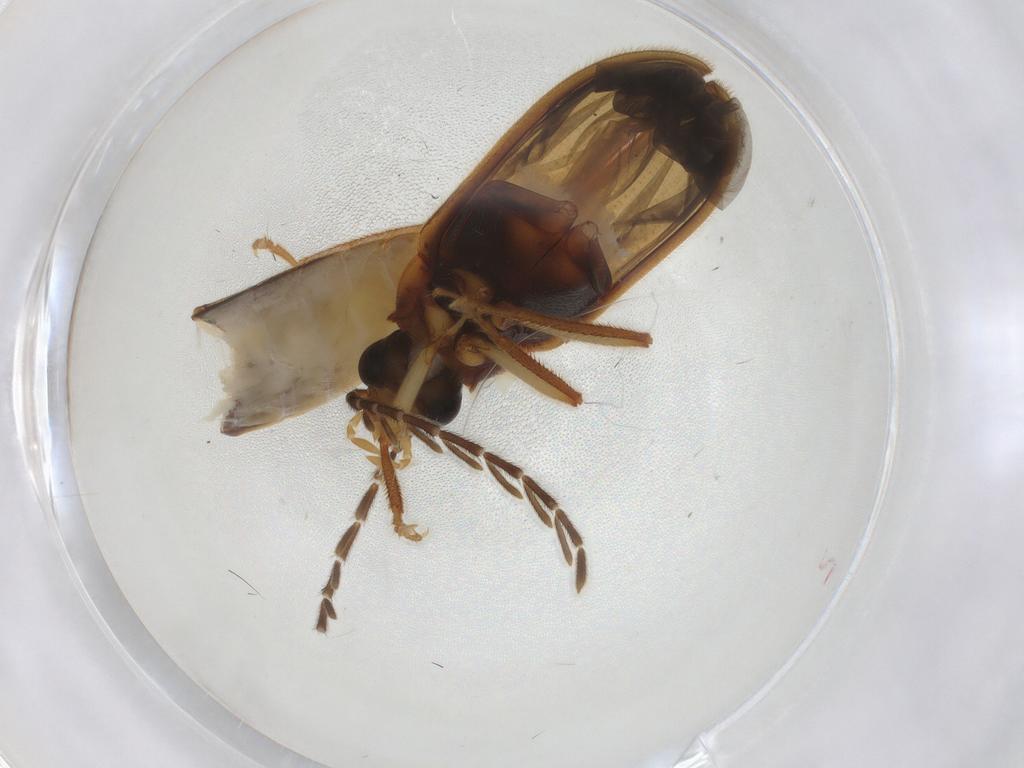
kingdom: Animalia
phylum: Arthropoda
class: Insecta
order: Coleoptera
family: Ptilodactylidae
